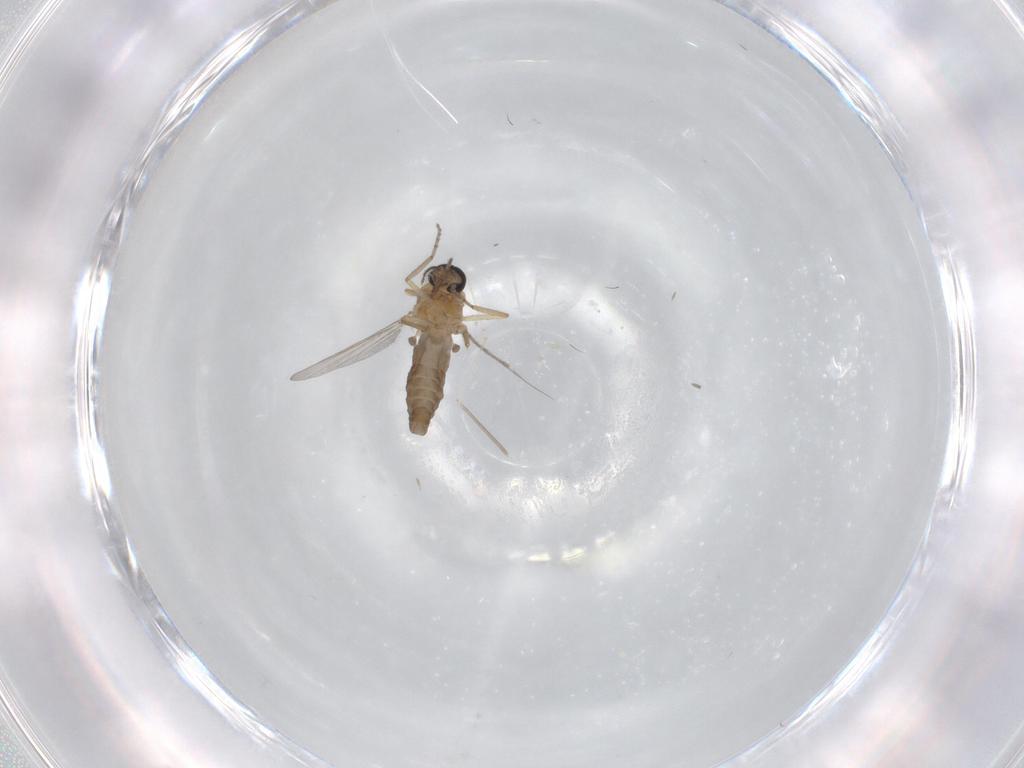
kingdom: Animalia
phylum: Arthropoda
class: Insecta
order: Diptera
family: Ceratopogonidae
